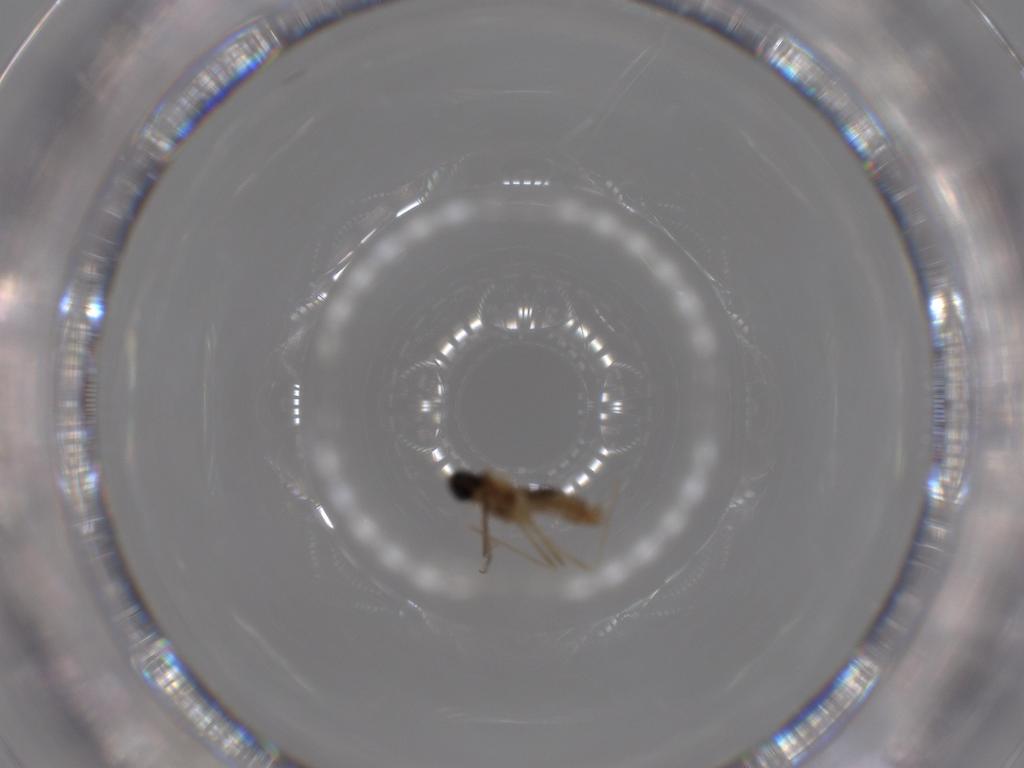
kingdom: Animalia
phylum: Arthropoda
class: Insecta
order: Diptera
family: Cecidomyiidae
